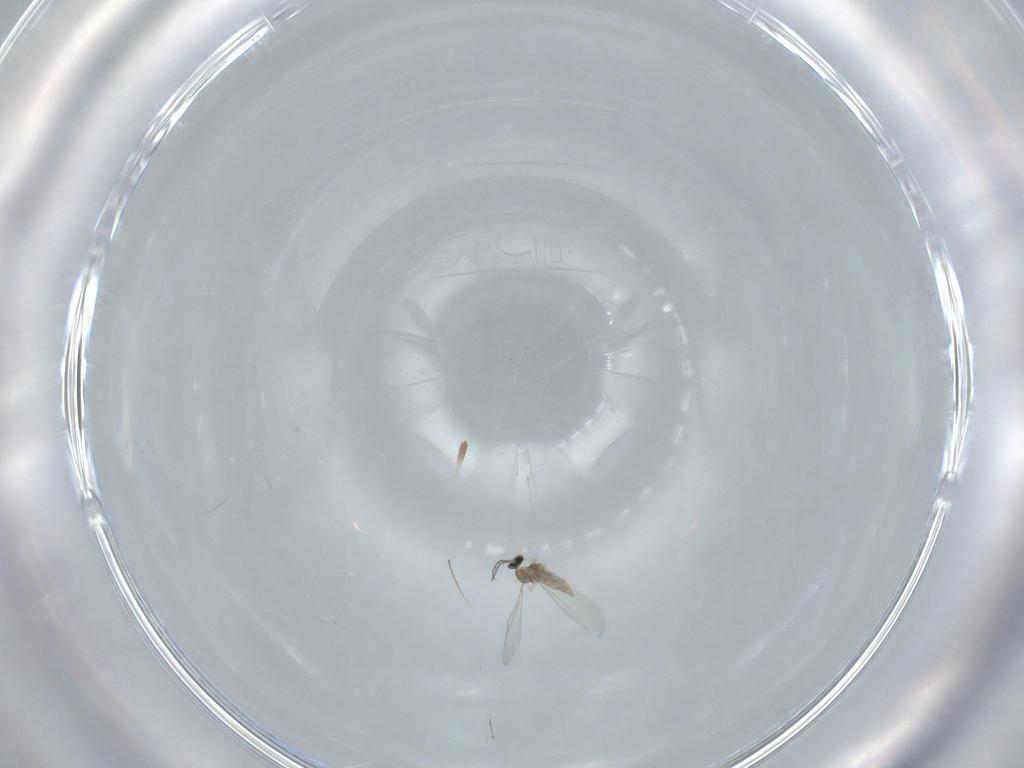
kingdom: Animalia
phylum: Arthropoda
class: Insecta
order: Diptera
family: Cecidomyiidae
